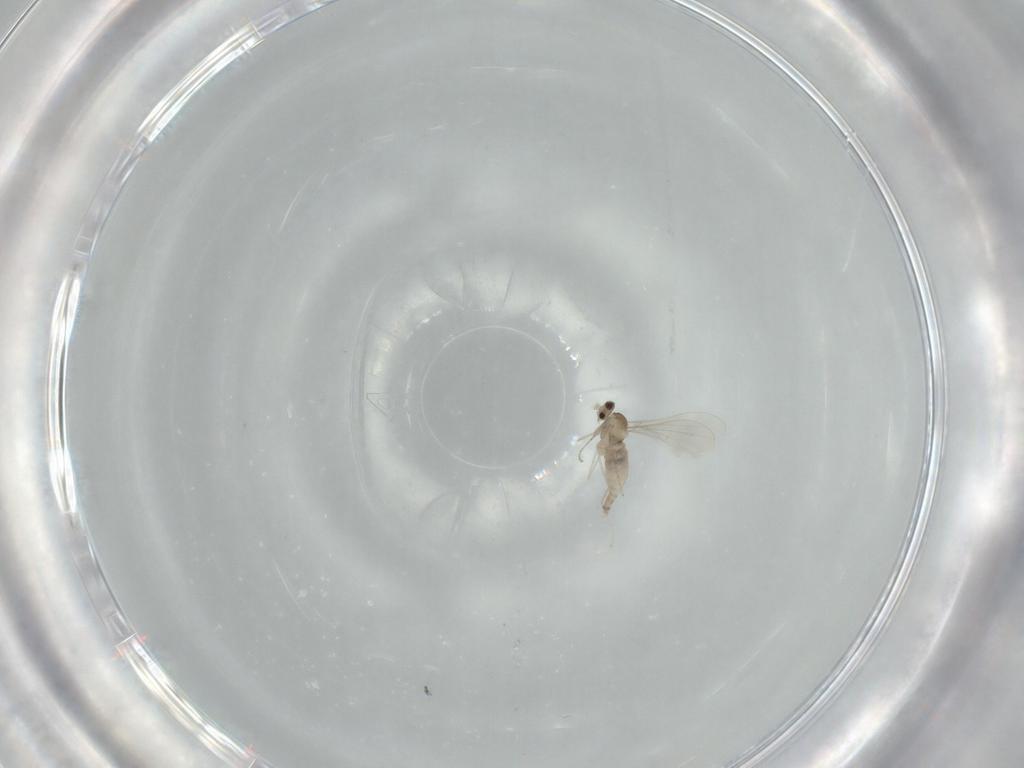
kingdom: Animalia
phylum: Arthropoda
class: Insecta
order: Diptera
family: Cecidomyiidae
